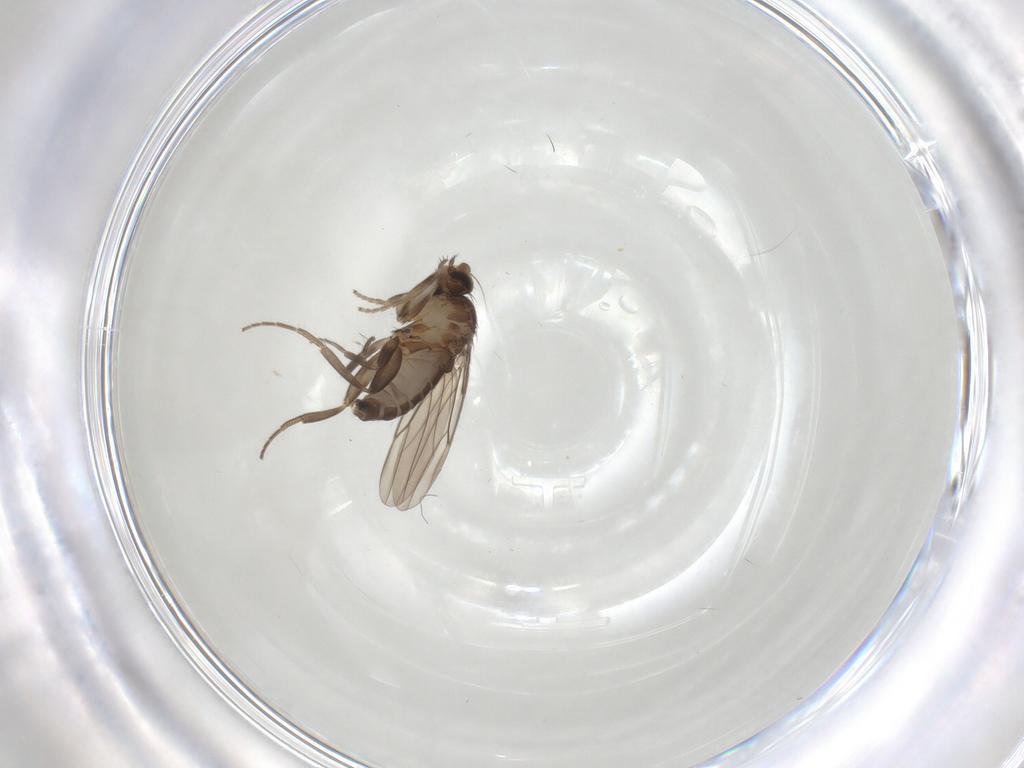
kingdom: Animalia
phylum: Arthropoda
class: Insecta
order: Diptera
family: Phoridae
